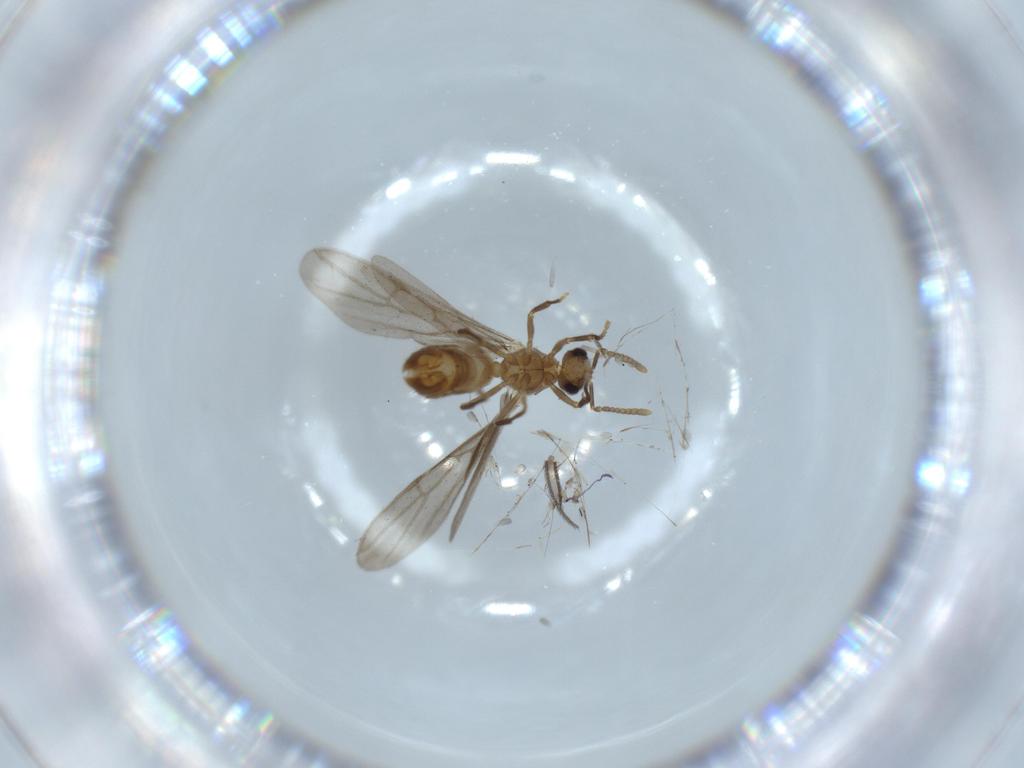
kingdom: Animalia
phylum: Arthropoda
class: Insecta
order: Hymenoptera
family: Formicidae
